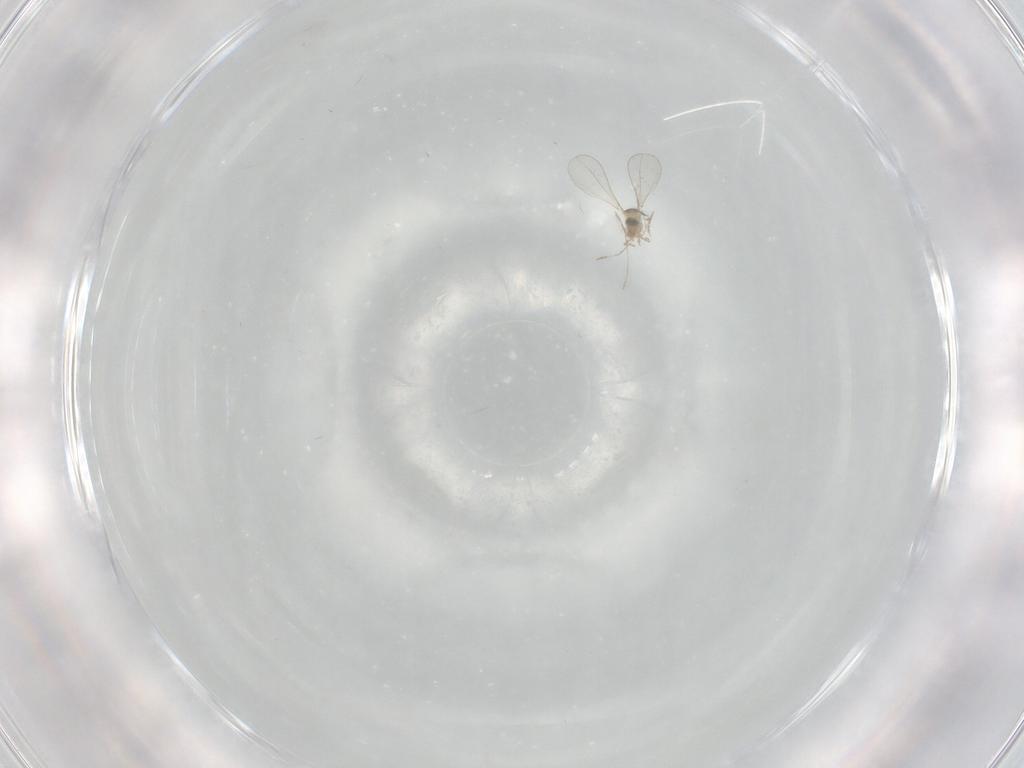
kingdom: Animalia
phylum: Arthropoda
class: Insecta
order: Diptera
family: Cecidomyiidae
